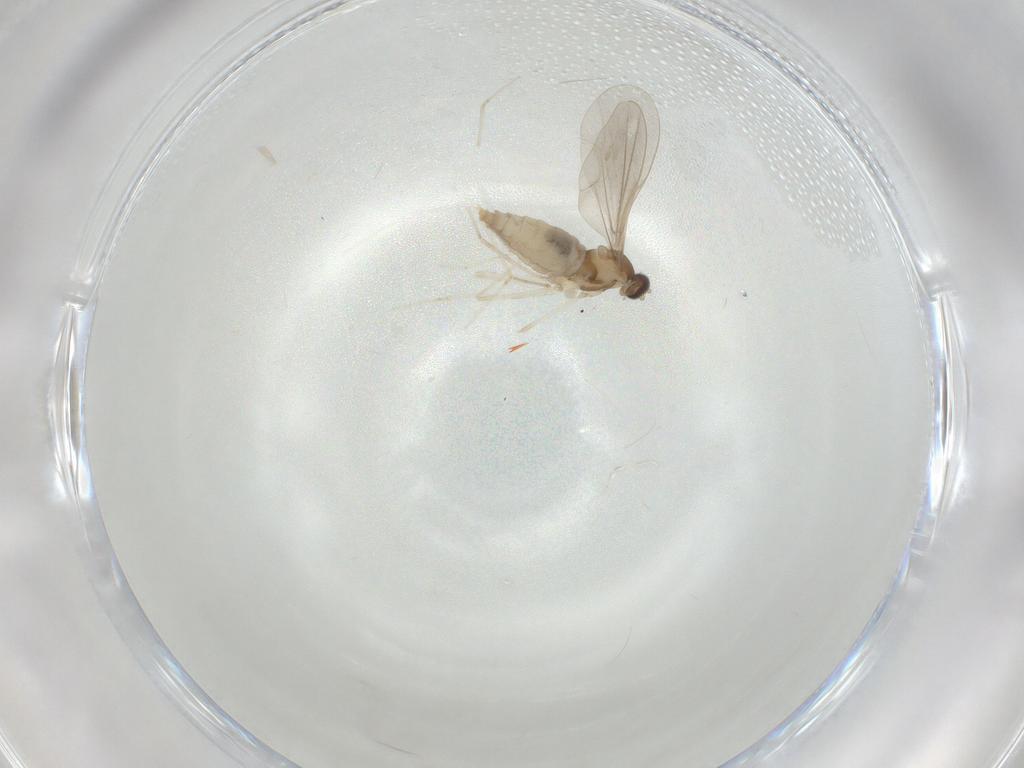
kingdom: Animalia
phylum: Arthropoda
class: Insecta
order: Diptera
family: Cecidomyiidae
